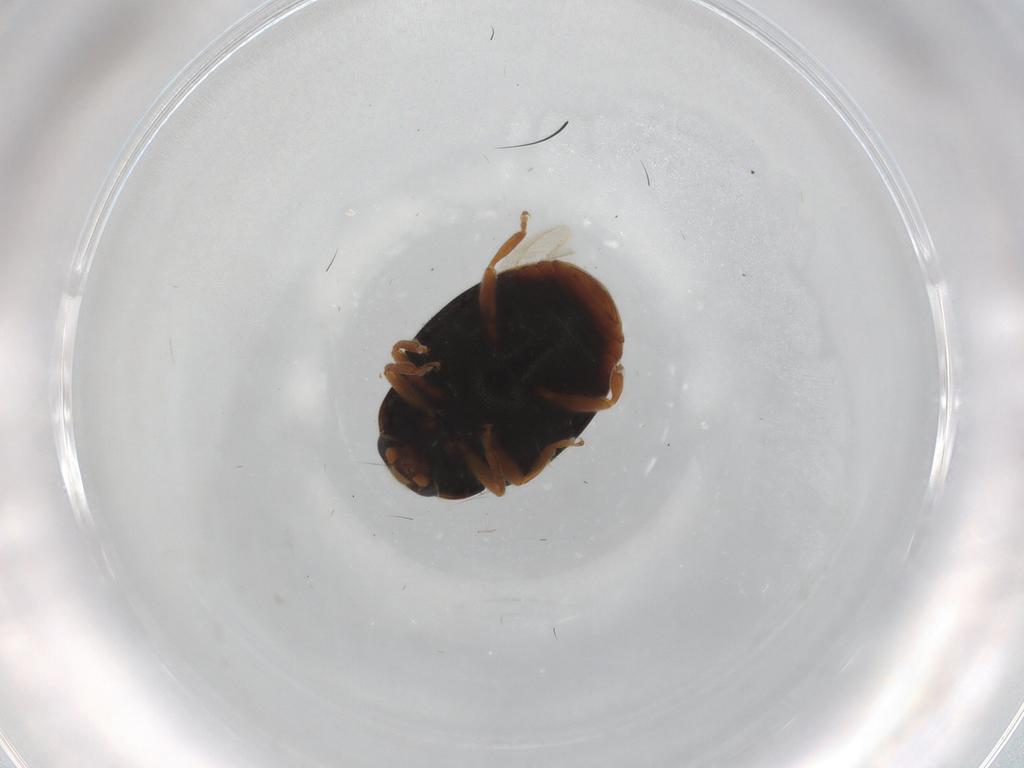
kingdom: Animalia
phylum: Arthropoda
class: Insecta
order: Coleoptera
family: Coccinellidae
